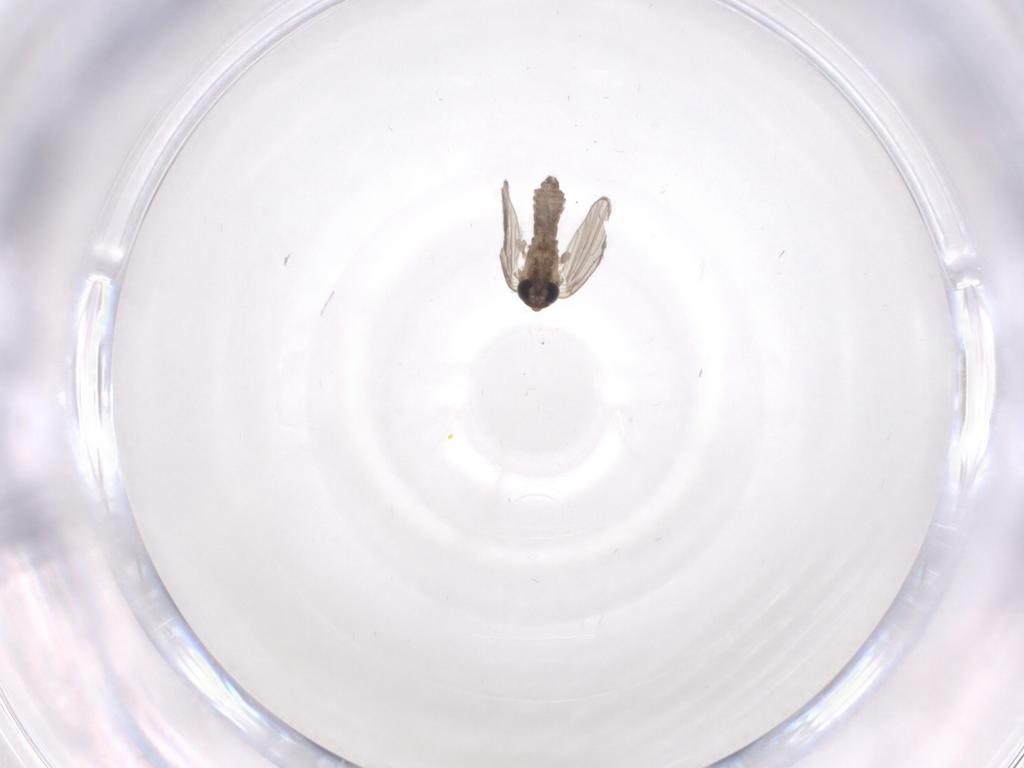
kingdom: Animalia
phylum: Arthropoda
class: Insecta
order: Diptera
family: Psychodidae
